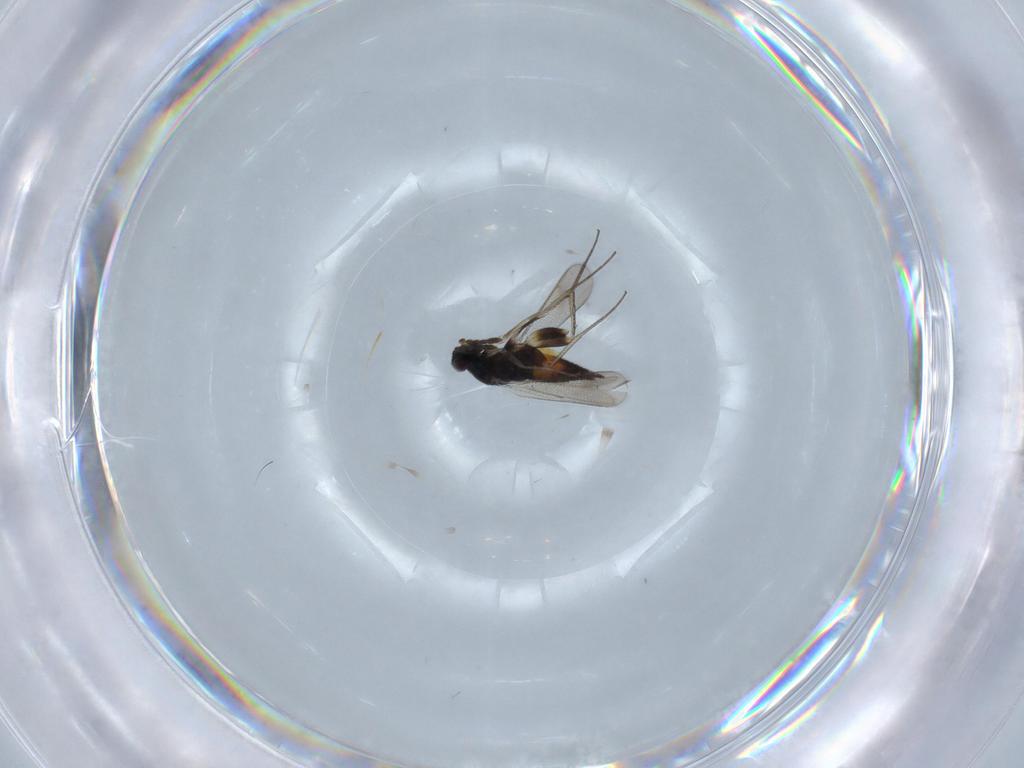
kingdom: Animalia
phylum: Arthropoda
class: Insecta
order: Hymenoptera
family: Eulophidae
